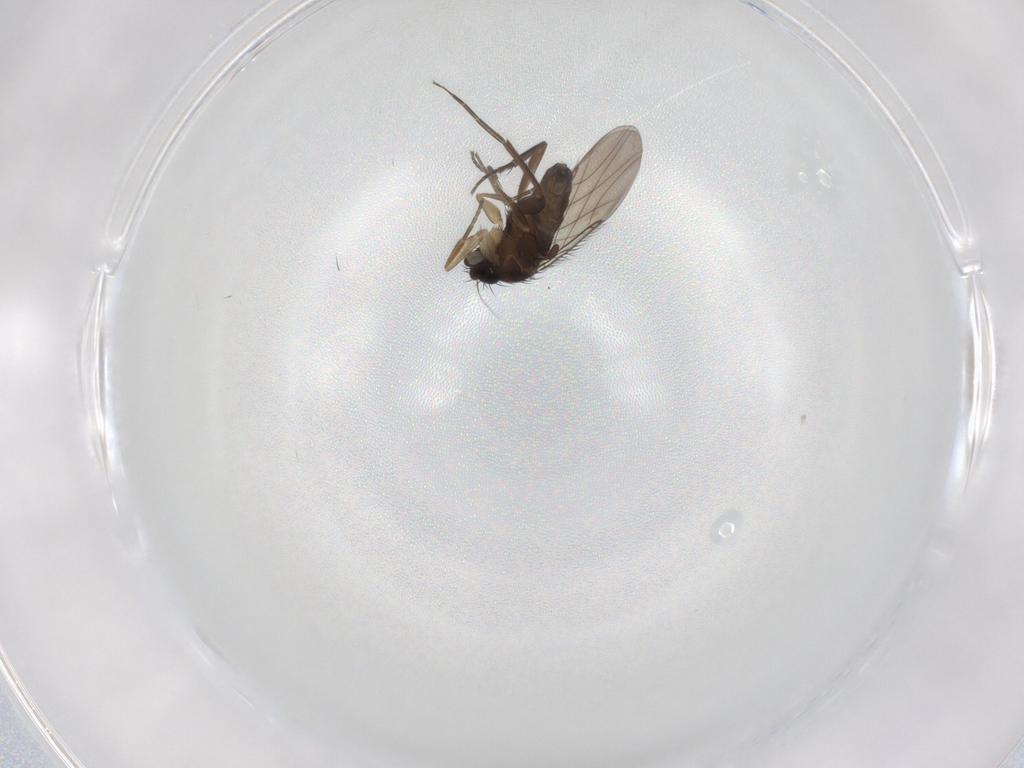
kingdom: Animalia
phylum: Arthropoda
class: Insecta
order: Diptera
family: Phoridae
